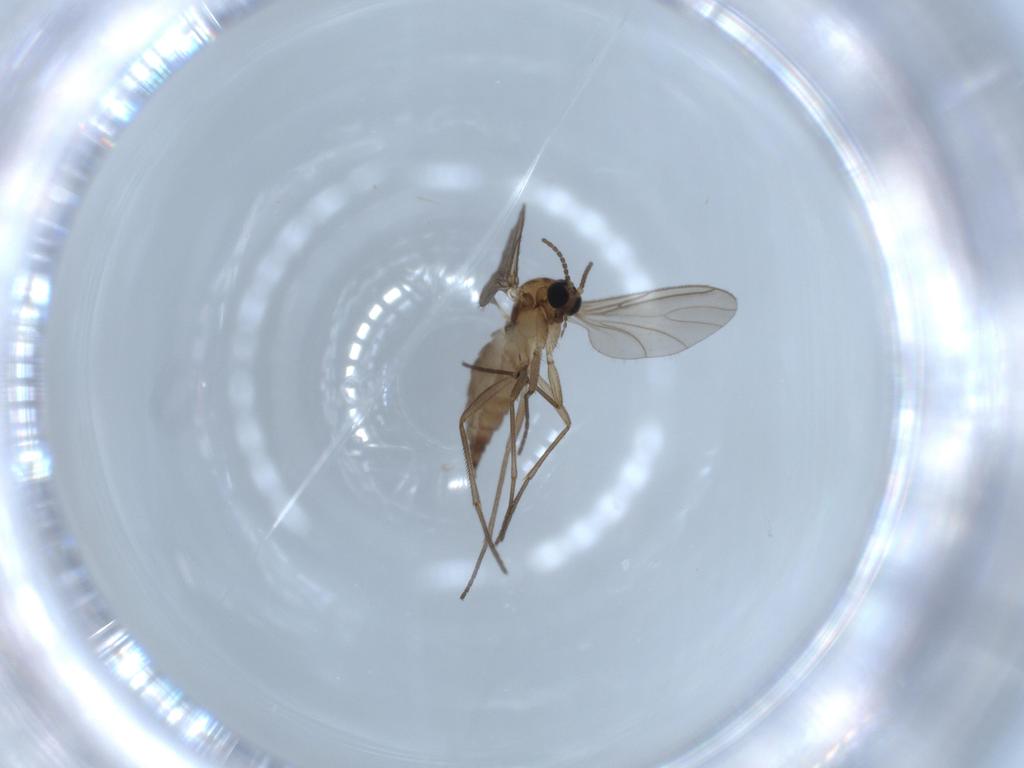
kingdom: Animalia
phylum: Arthropoda
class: Insecta
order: Diptera
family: Sciaridae
